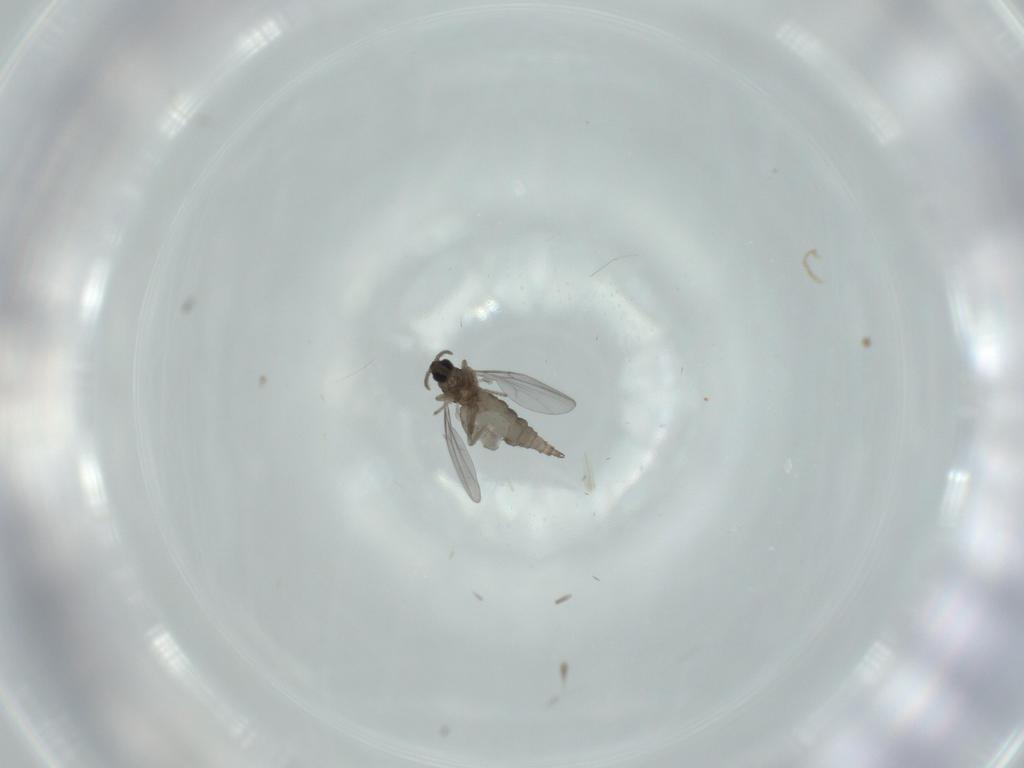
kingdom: Animalia
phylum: Arthropoda
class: Insecta
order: Diptera
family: Cecidomyiidae
